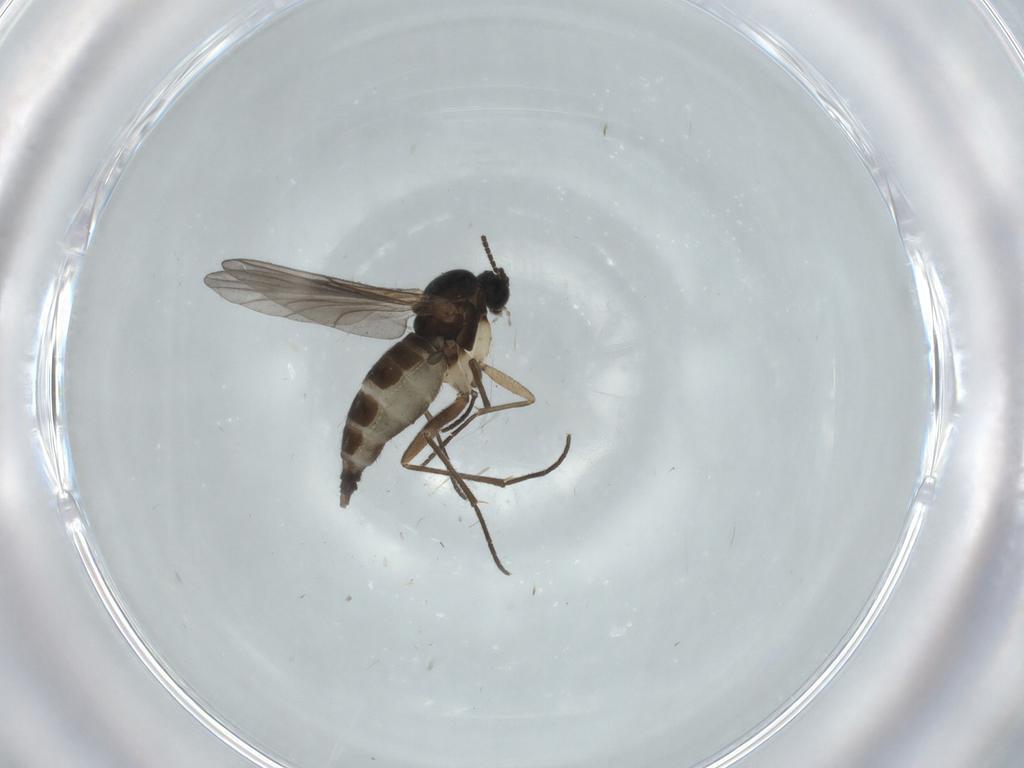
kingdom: Animalia
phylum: Arthropoda
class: Insecta
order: Diptera
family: Sciaridae
